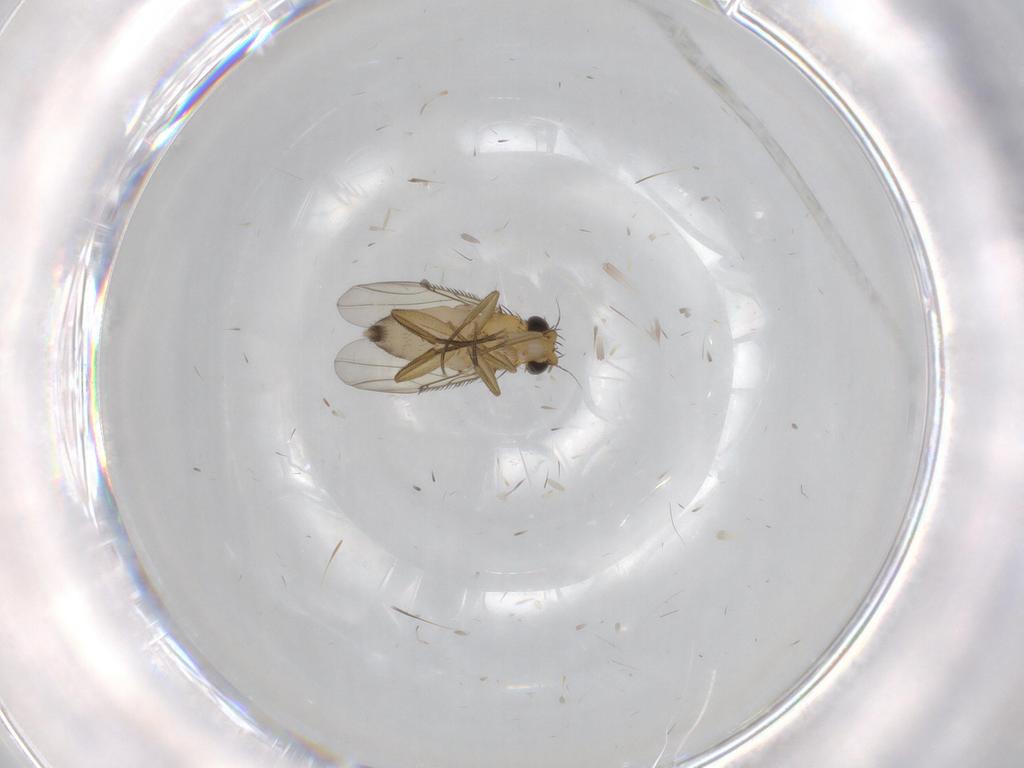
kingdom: Animalia
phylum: Arthropoda
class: Insecta
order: Diptera
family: Phoridae
